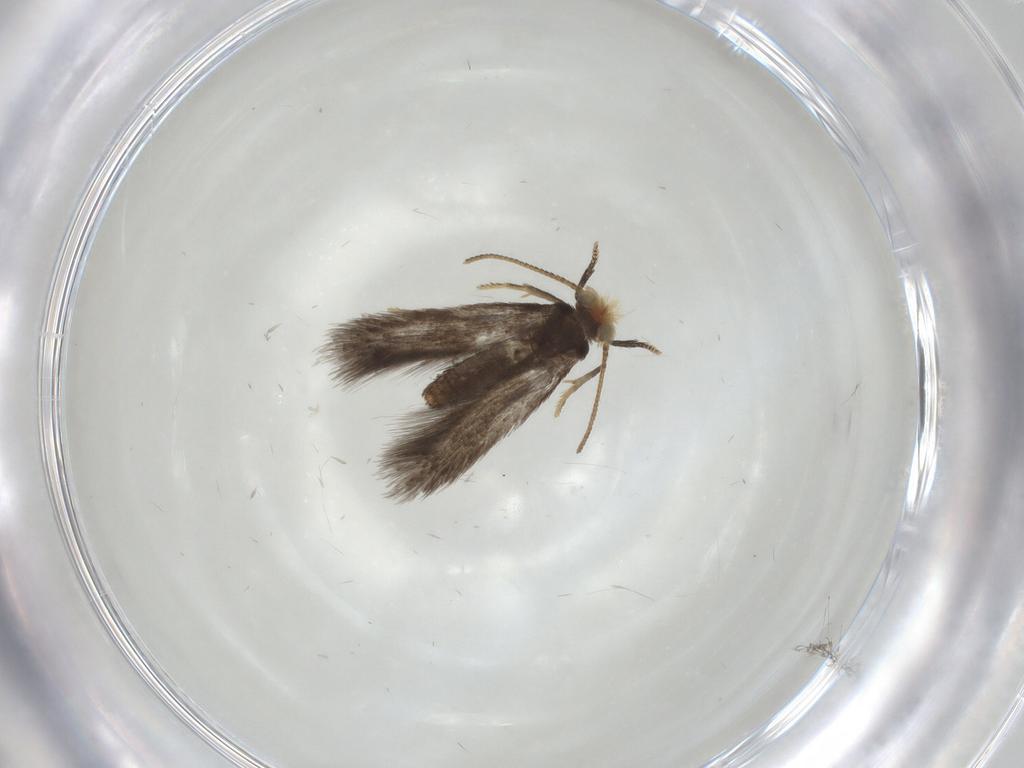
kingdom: Animalia
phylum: Arthropoda
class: Insecta
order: Lepidoptera
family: Nepticulidae
